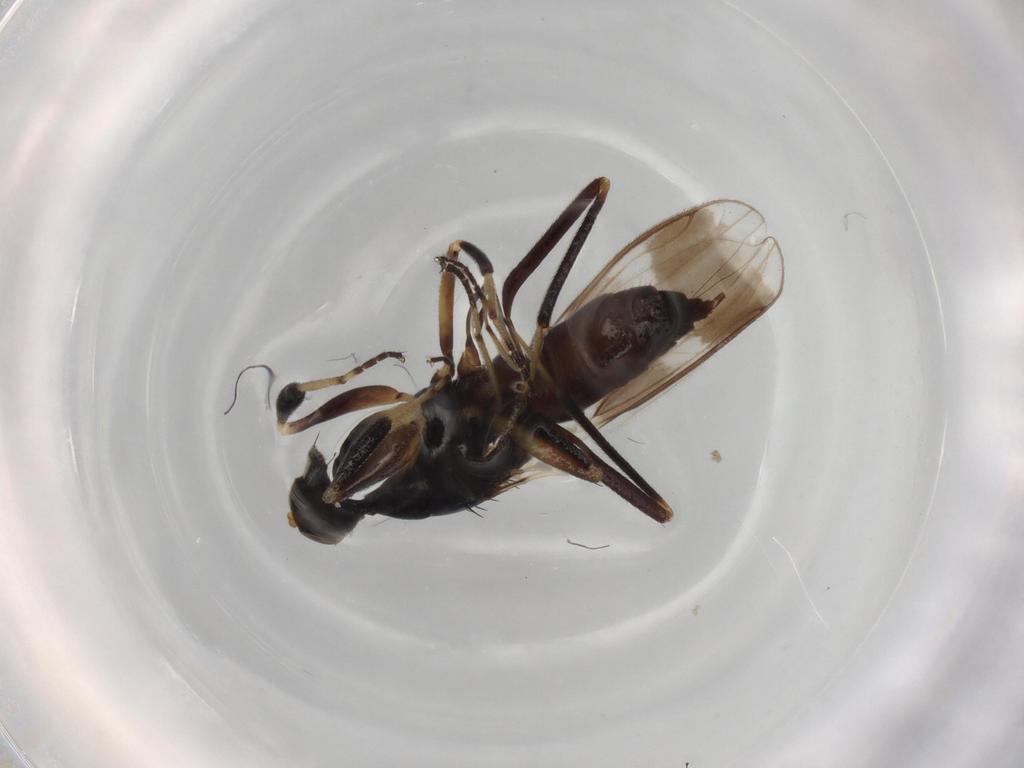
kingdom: Animalia
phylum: Arthropoda
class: Insecta
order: Diptera
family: Hybotidae
